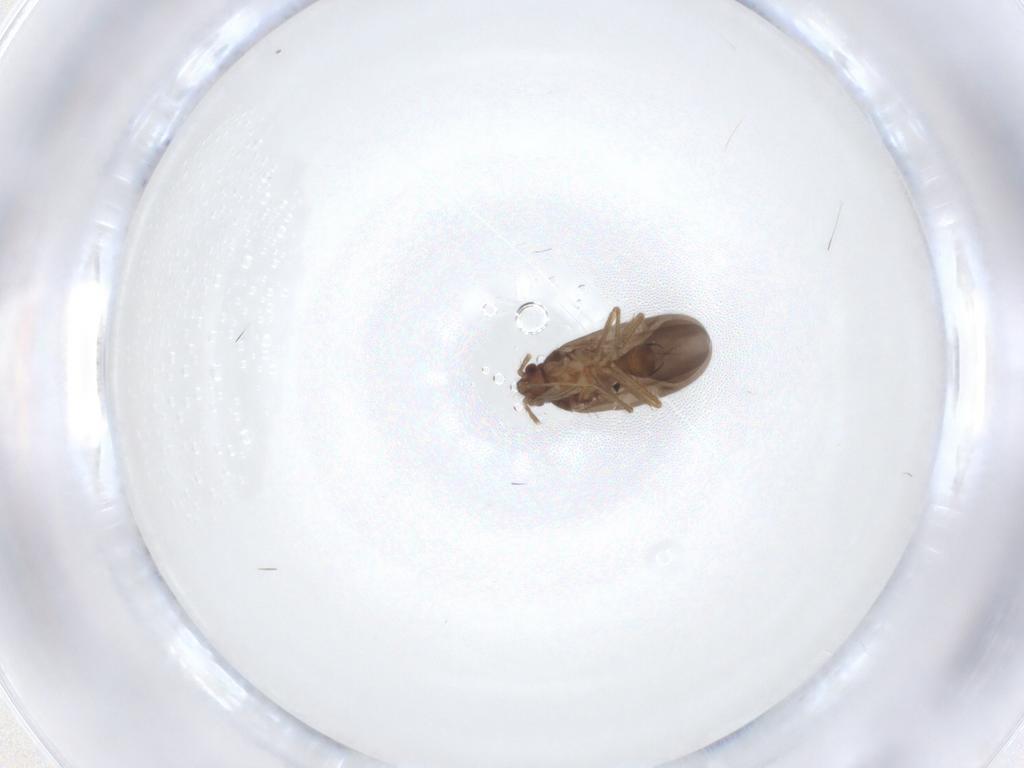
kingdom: Animalia
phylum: Arthropoda
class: Insecta
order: Hemiptera
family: Ceratocombidae
